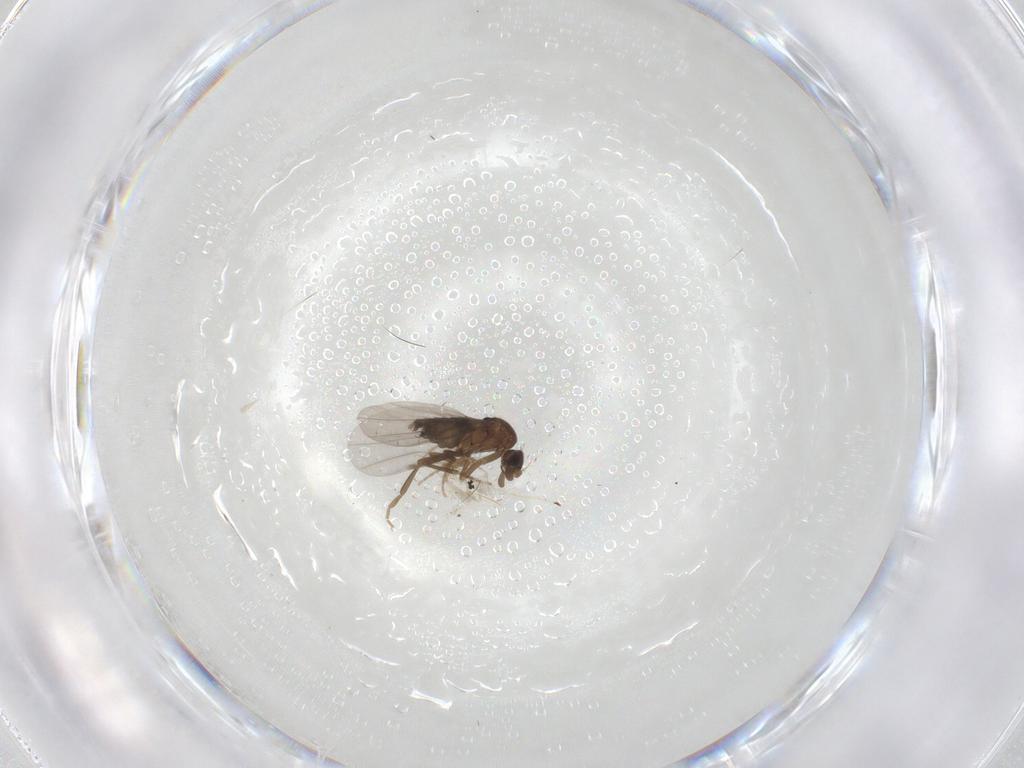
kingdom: Animalia
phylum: Arthropoda
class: Insecta
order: Diptera
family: Phoridae
